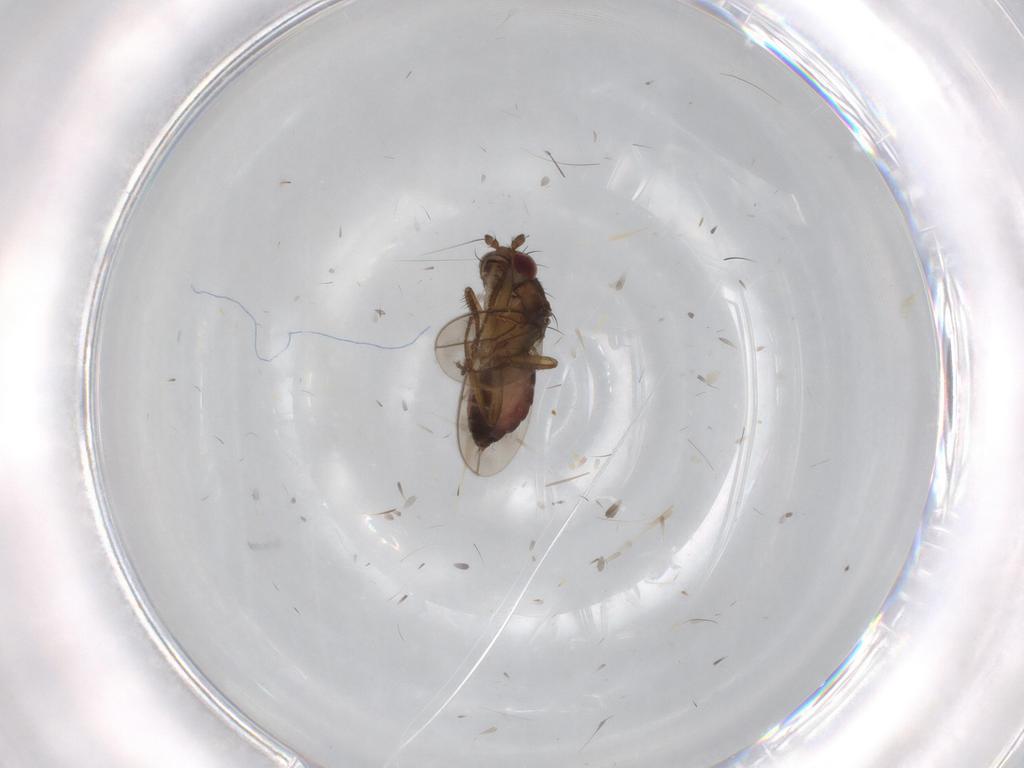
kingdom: Animalia
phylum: Arthropoda
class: Insecta
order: Diptera
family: Sphaeroceridae
